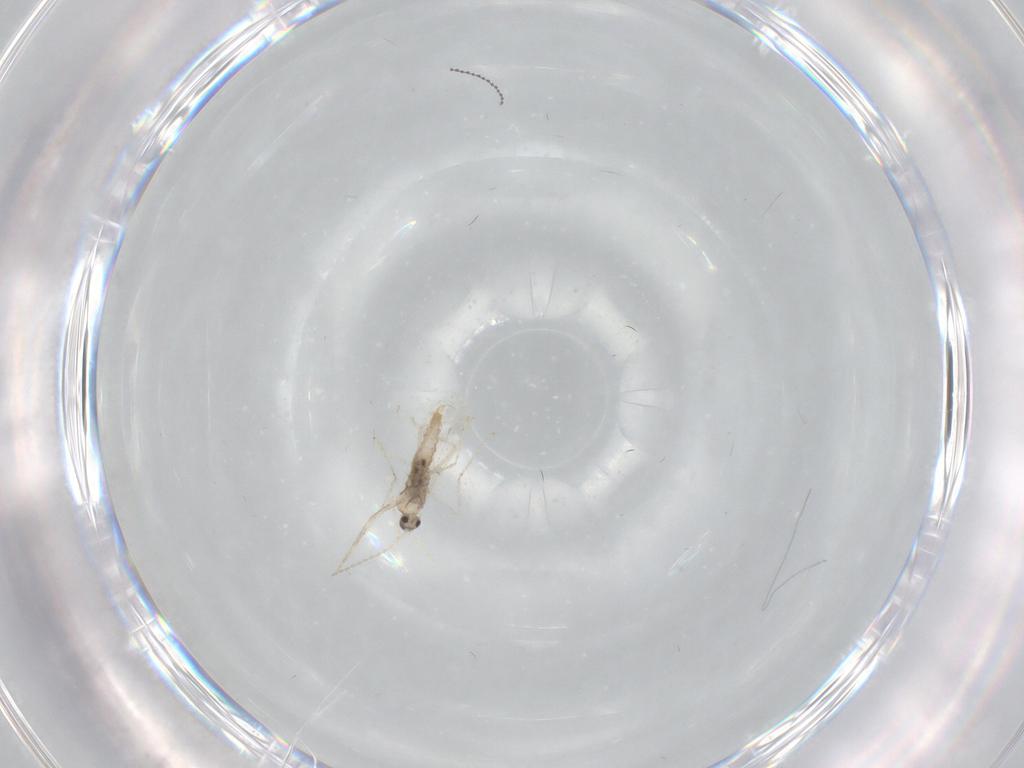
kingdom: Animalia
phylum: Arthropoda
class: Insecta
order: Diptera
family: Cecidomyiidae
